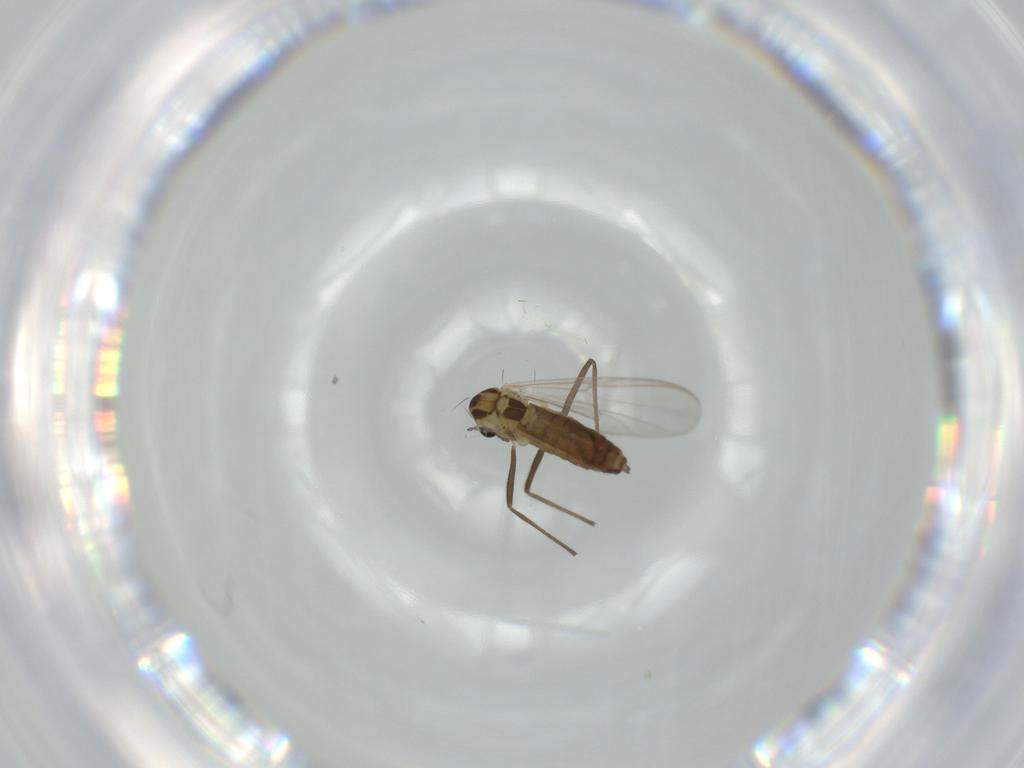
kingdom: Animalia
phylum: Arthropoda
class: Insecta
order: Diptera
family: Chironomidae
